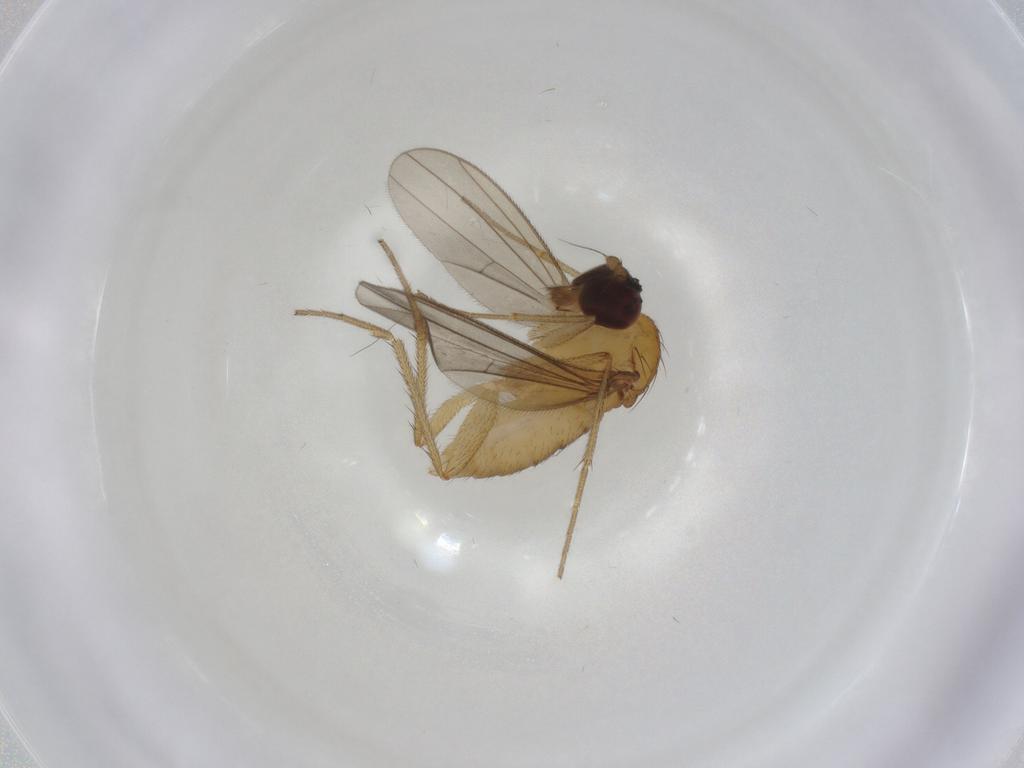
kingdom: Animalia
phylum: Arthropoda
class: Insecta
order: Diptera
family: Dolichopodidae
